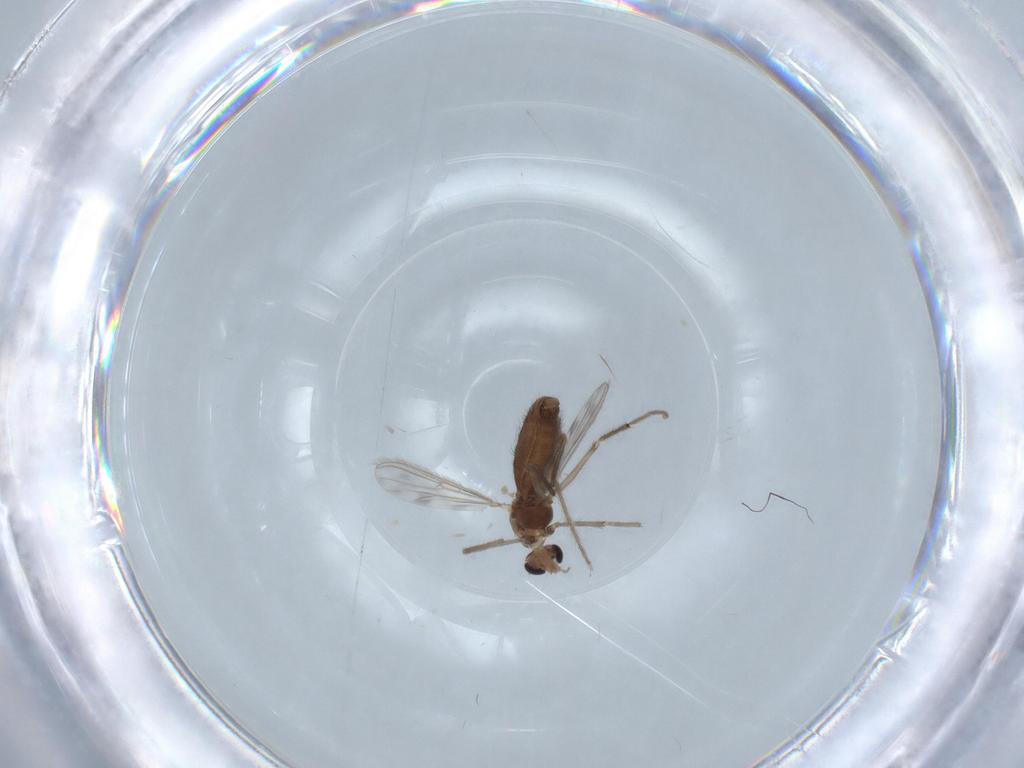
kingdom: Animalia
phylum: Arthropoda
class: Insecta
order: Diptera
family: Chironomidae
